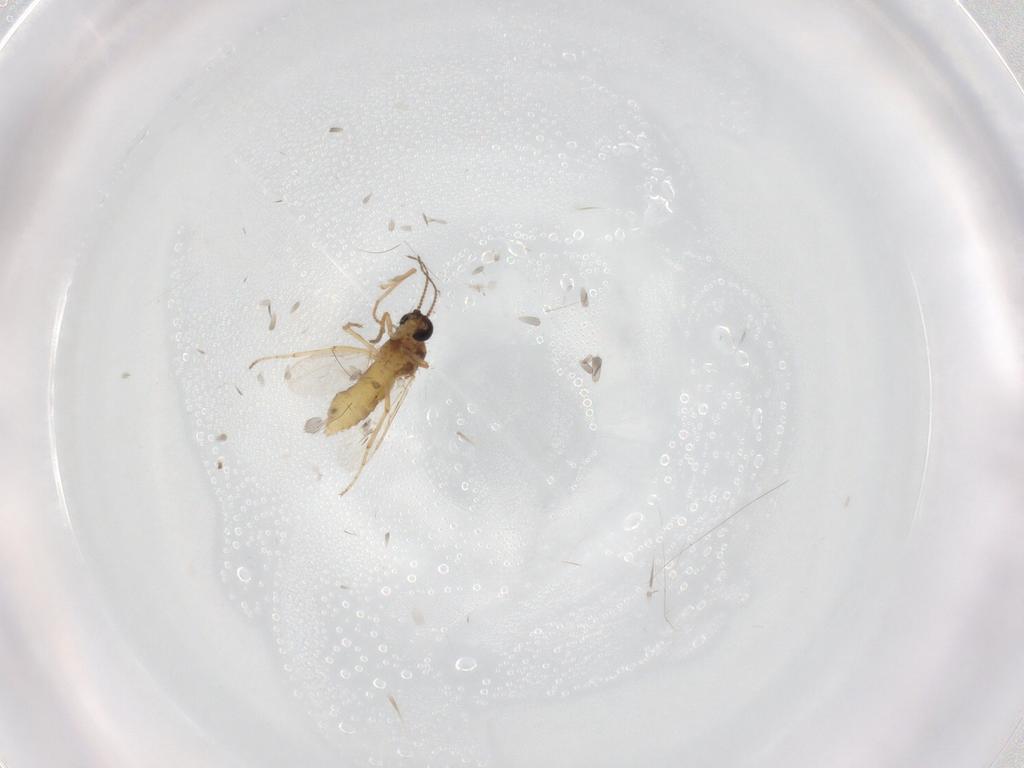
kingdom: Animalia
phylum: Arthropoda
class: Insecta
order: Diptera
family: Ceratopogonidae
